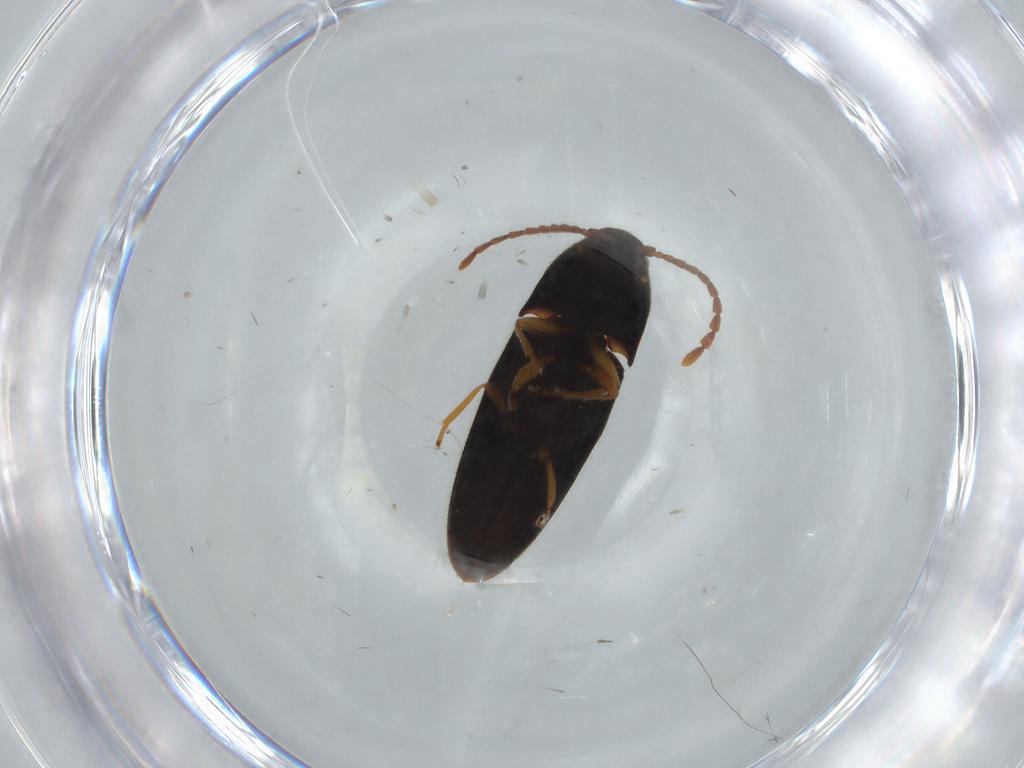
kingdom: Animalia
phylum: Arthropoda
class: Insecta
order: Coleoptera
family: Elateridae
